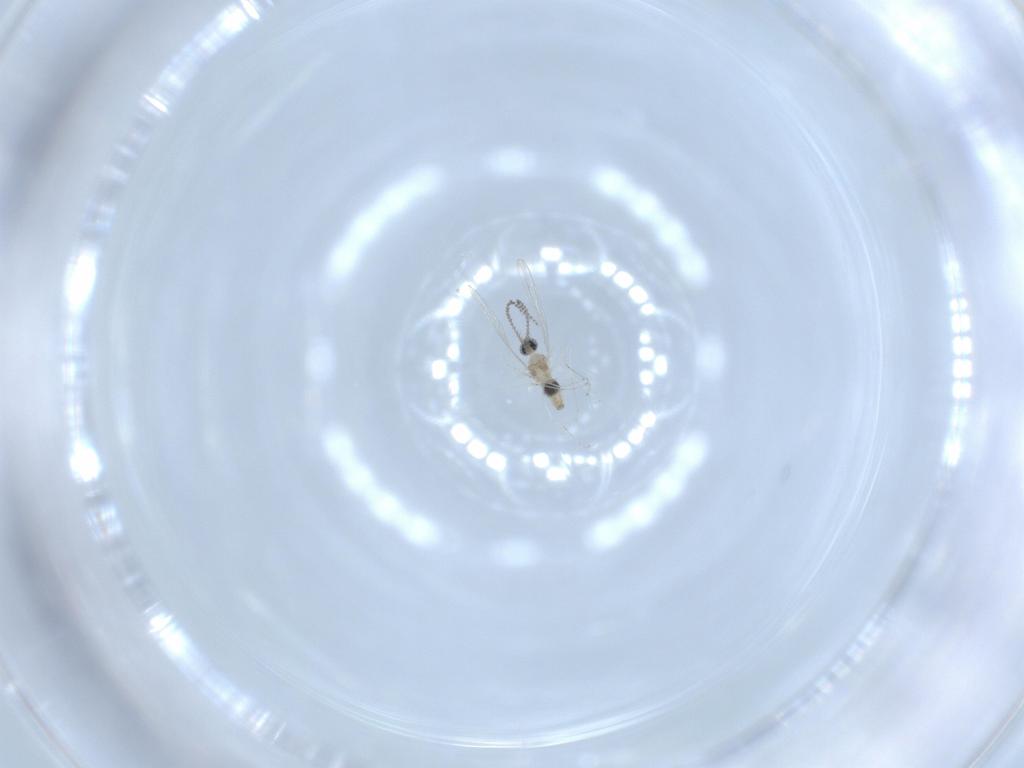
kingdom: Animalia
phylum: Arthropoda
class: Insecta
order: Diptera
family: Cecidomyiidae
